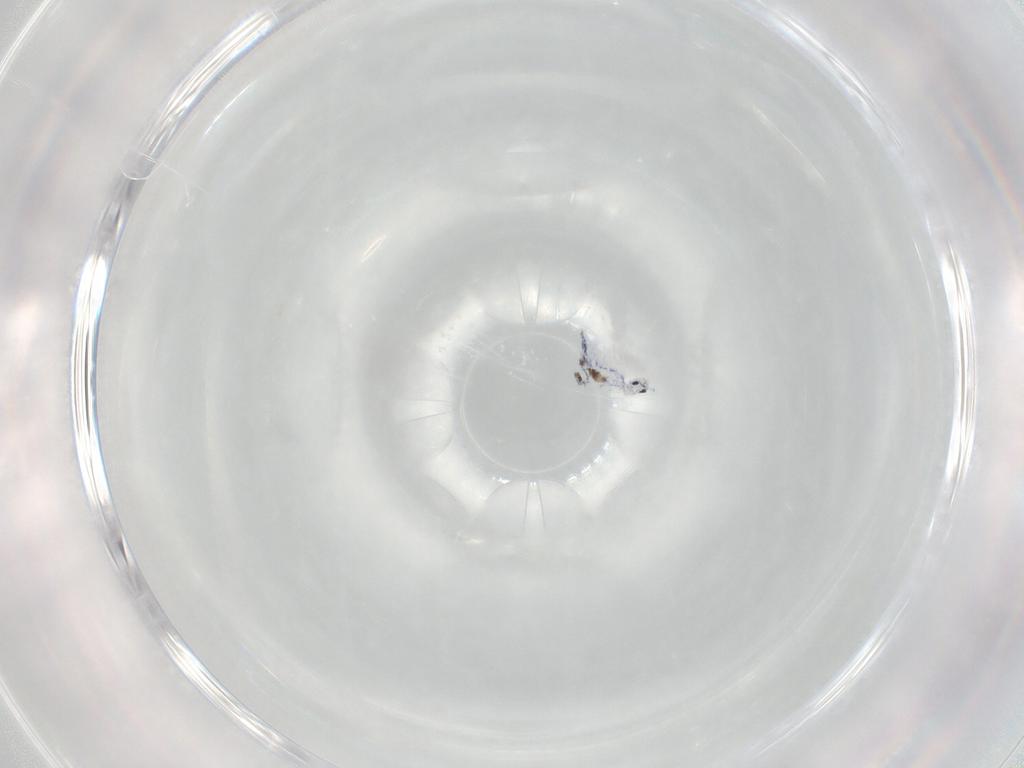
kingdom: Animalia
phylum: Arthropoda
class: Collembola
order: Entomobryomorpha
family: Entomobryidae
